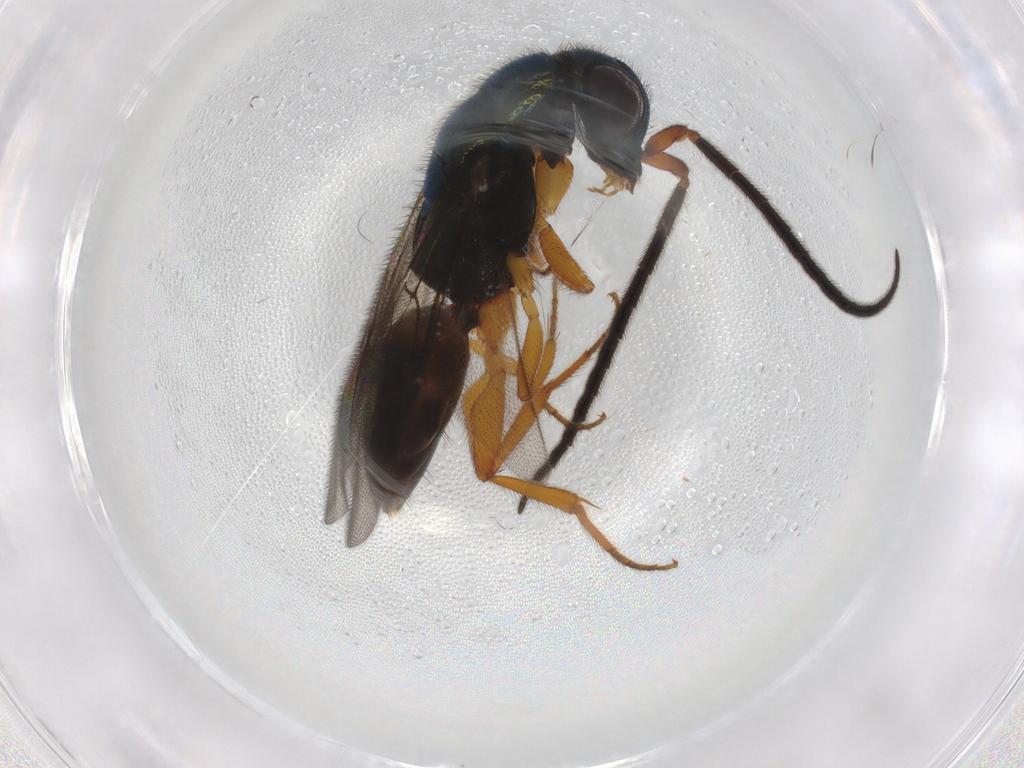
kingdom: Animalia
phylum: Arthropoda
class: Insecta
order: Hymenoptera
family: Chrysididae
